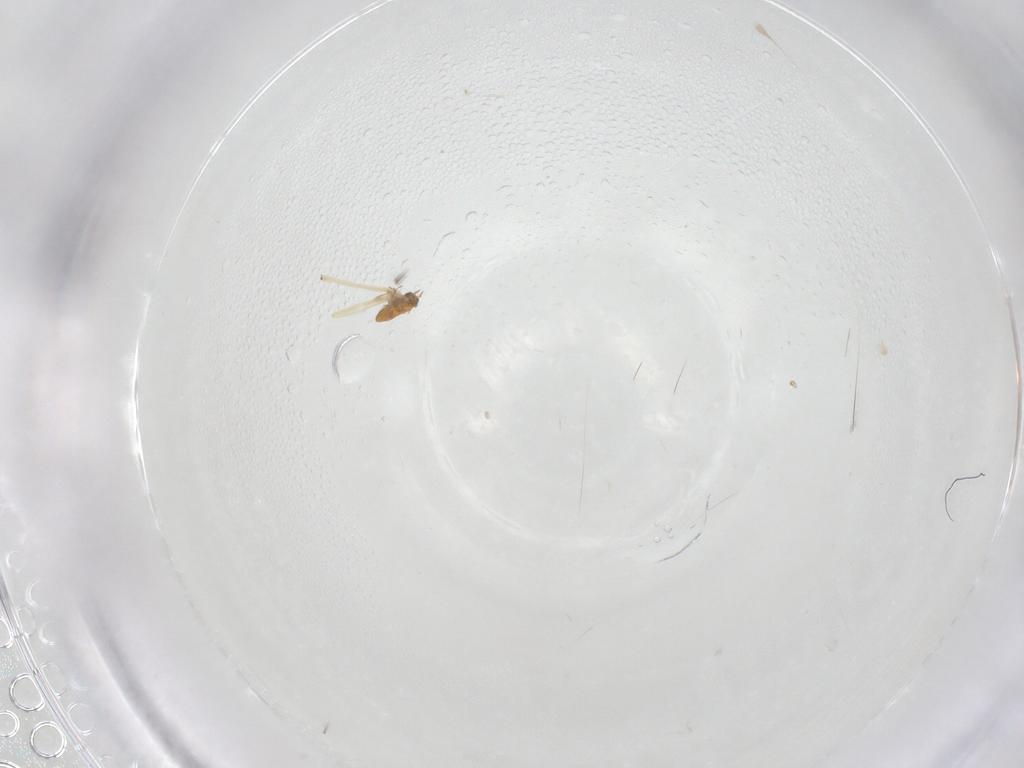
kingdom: Animalia
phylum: Arthropoda
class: Insecta
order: Diptera
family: Chironomidae
